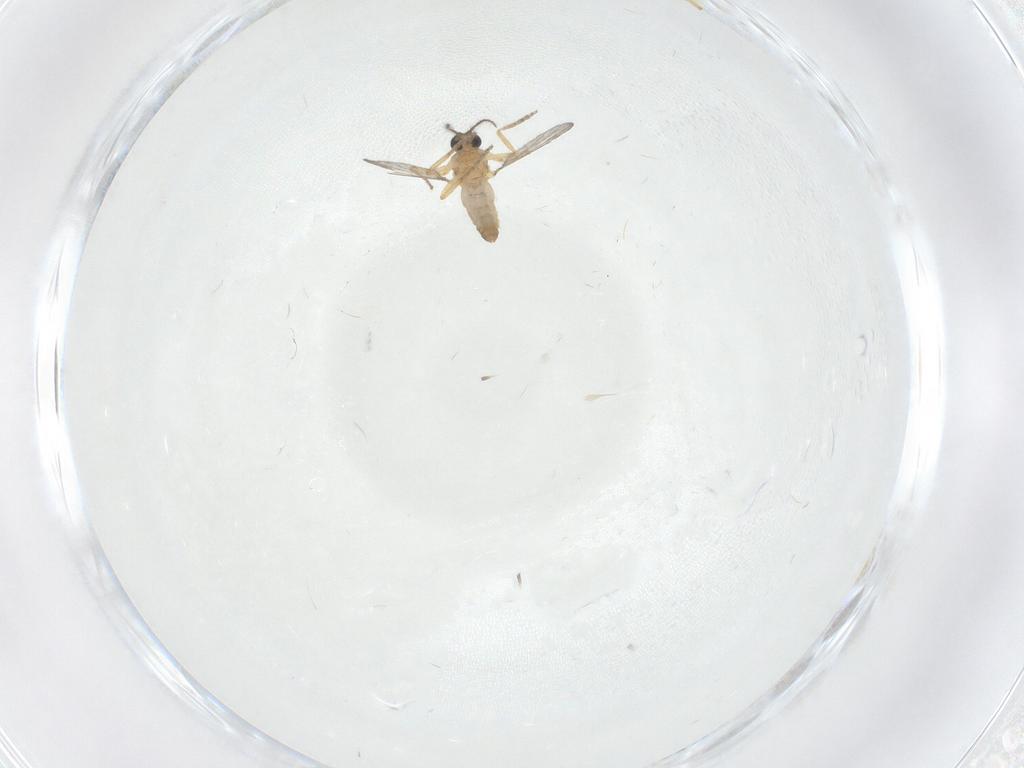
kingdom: Animalia
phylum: Arthropoda
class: Insecta
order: Diptera
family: Ceratopogonidae
